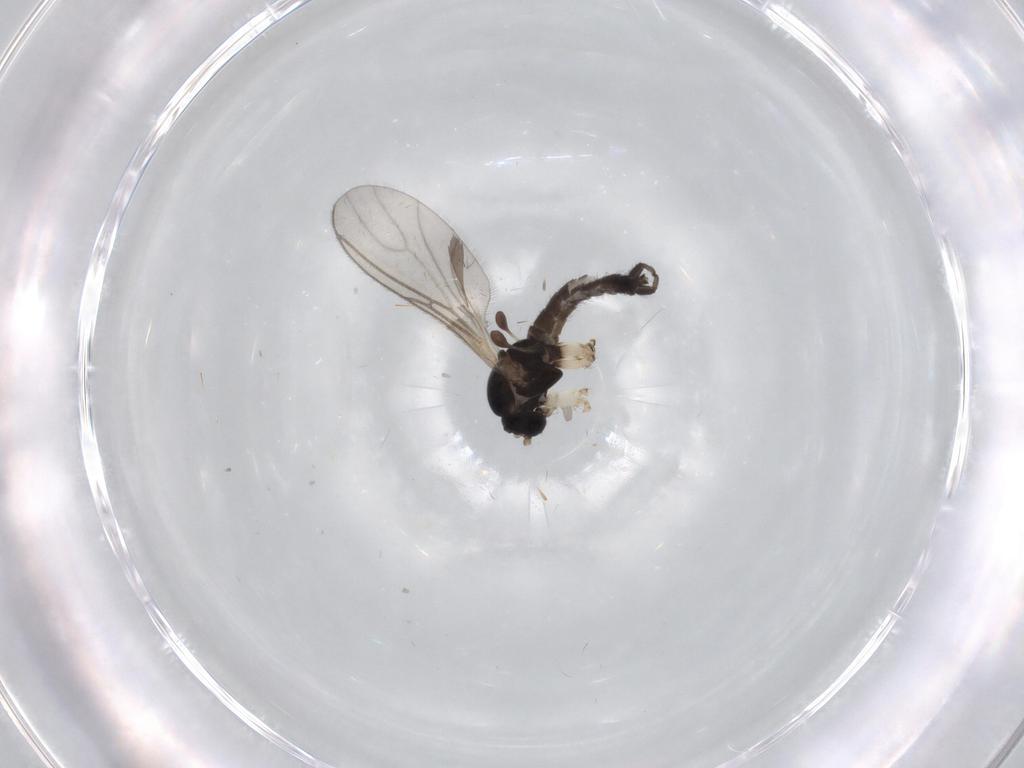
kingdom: Animalia
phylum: Arthropoda
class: Insecta
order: Diptera
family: Sciaridae
